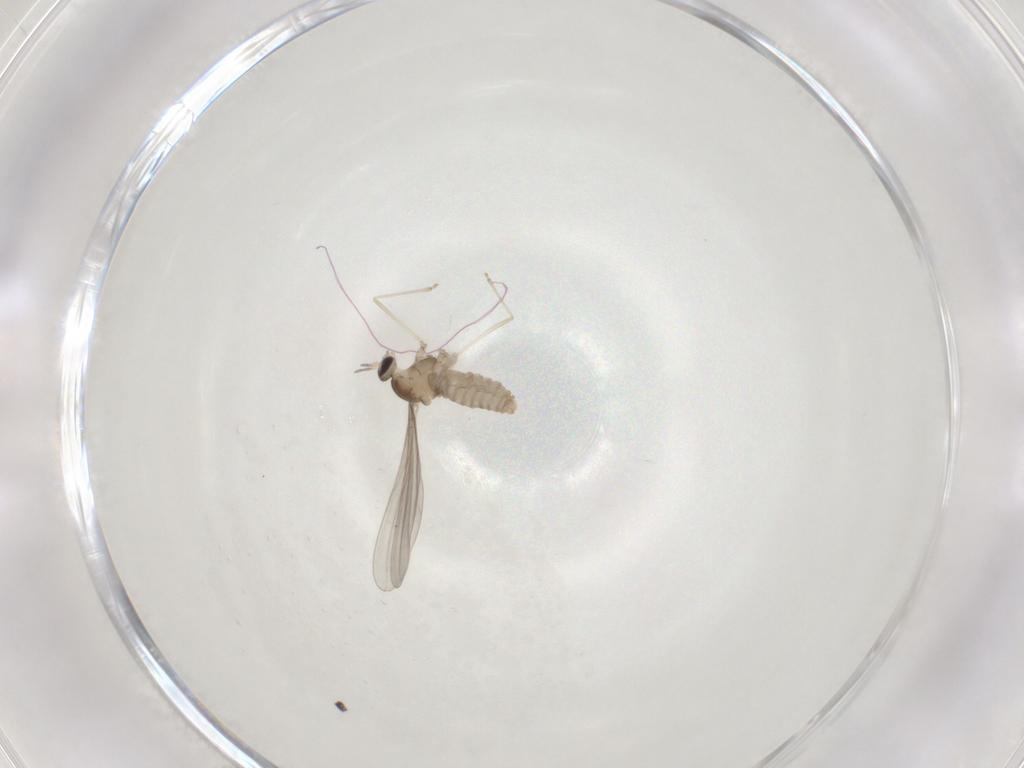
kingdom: Animalia
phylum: Arthropoda
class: Insecta
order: Diptera
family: Cecidomyiidae
